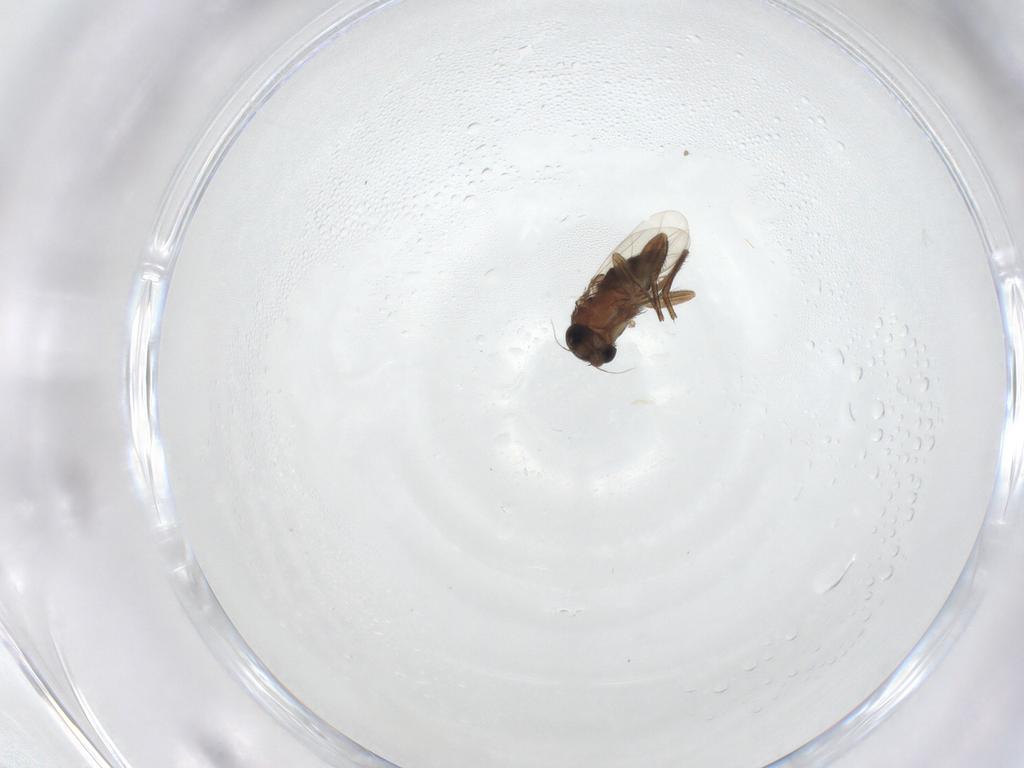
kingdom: Animalia
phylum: Arthropoda
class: Insecta
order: Diptera
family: Phoridae
